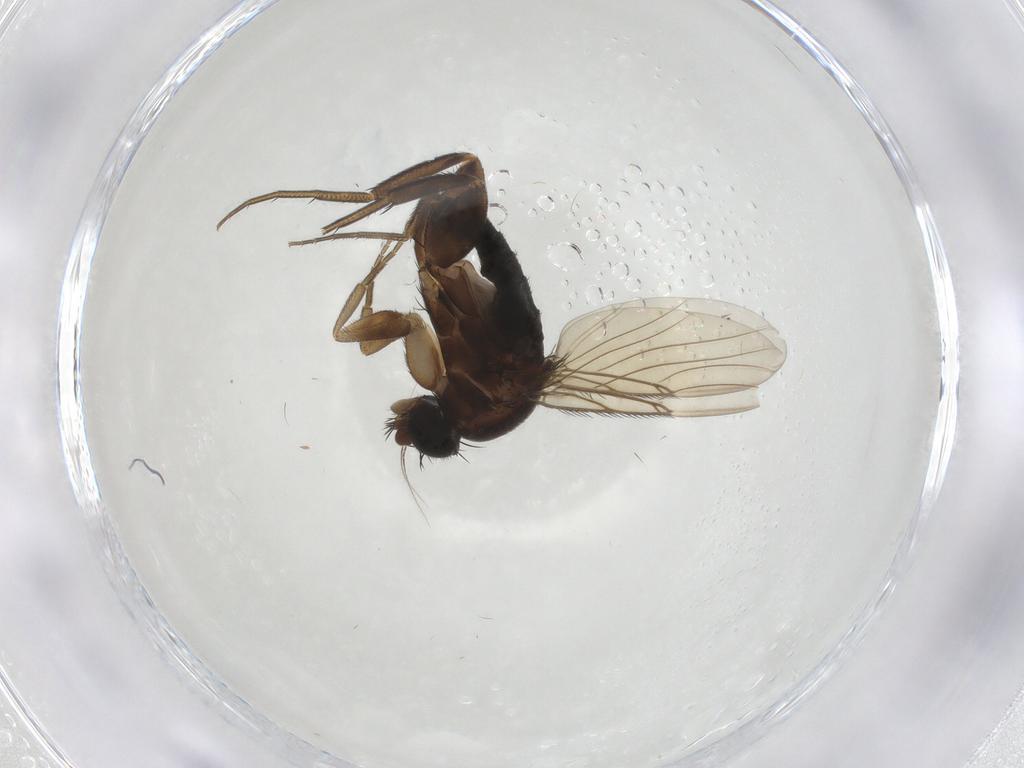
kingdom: Animalia
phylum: Arthropoda
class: Insecta
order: Diptera
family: Psychodidae
